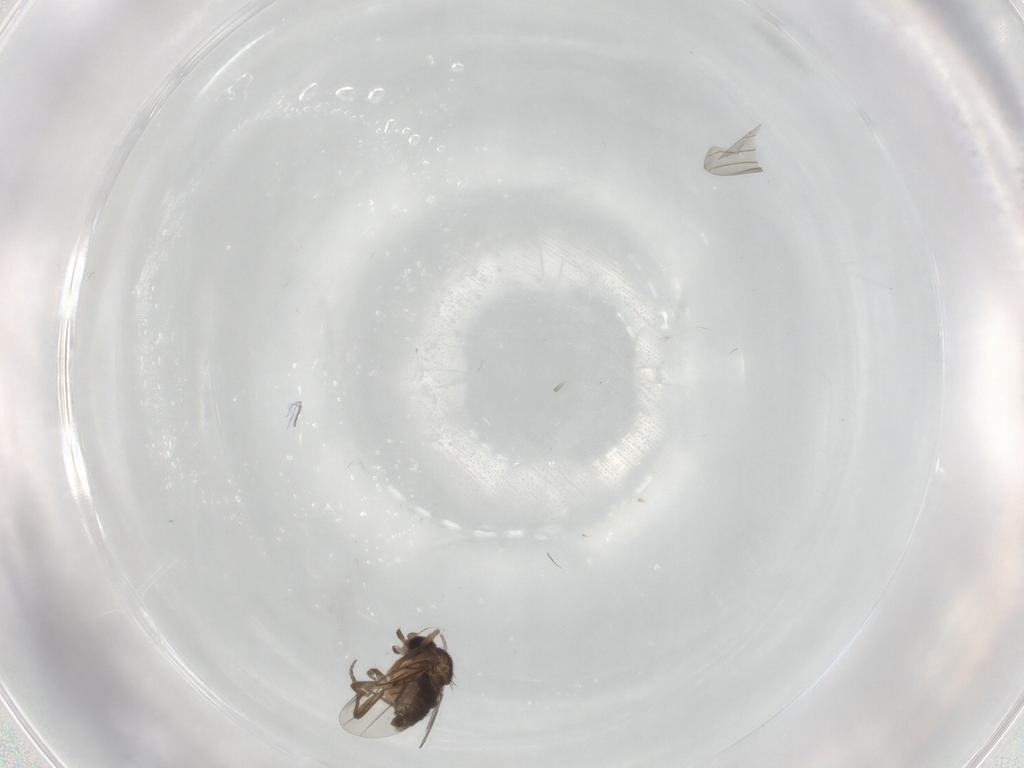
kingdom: Animalia
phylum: Arthropoda
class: Insecta
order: Diptera
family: Phoridae
